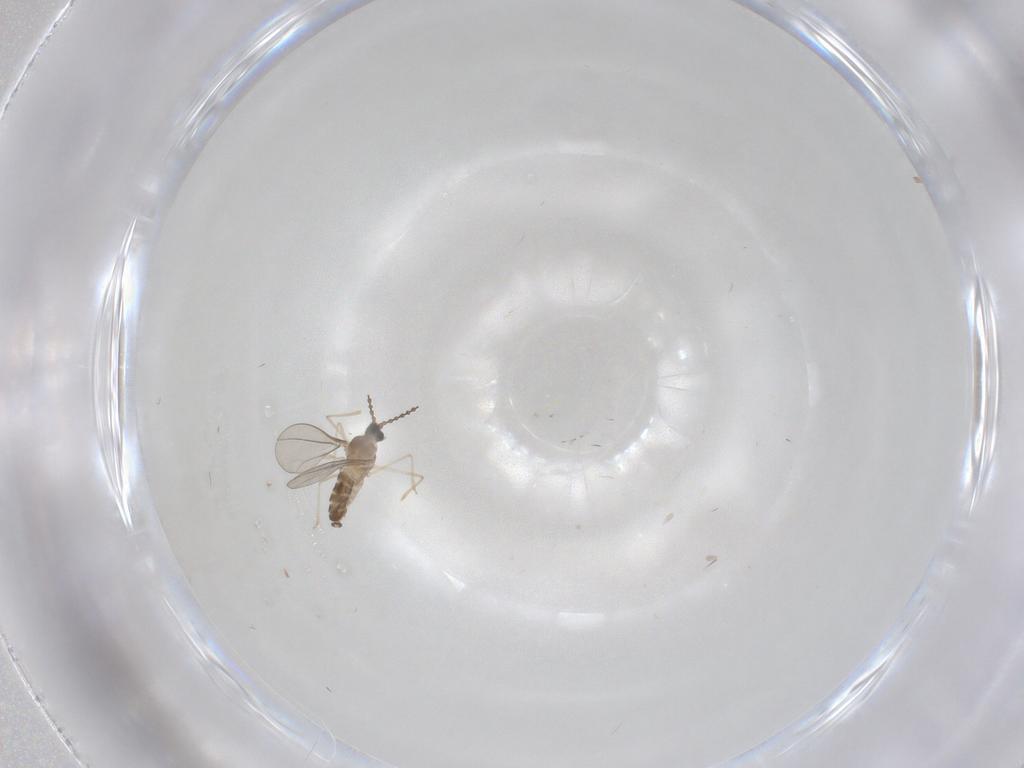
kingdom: Animalia
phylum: Arthropoda
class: Insecta
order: Diptera
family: Cecidomyiidae
